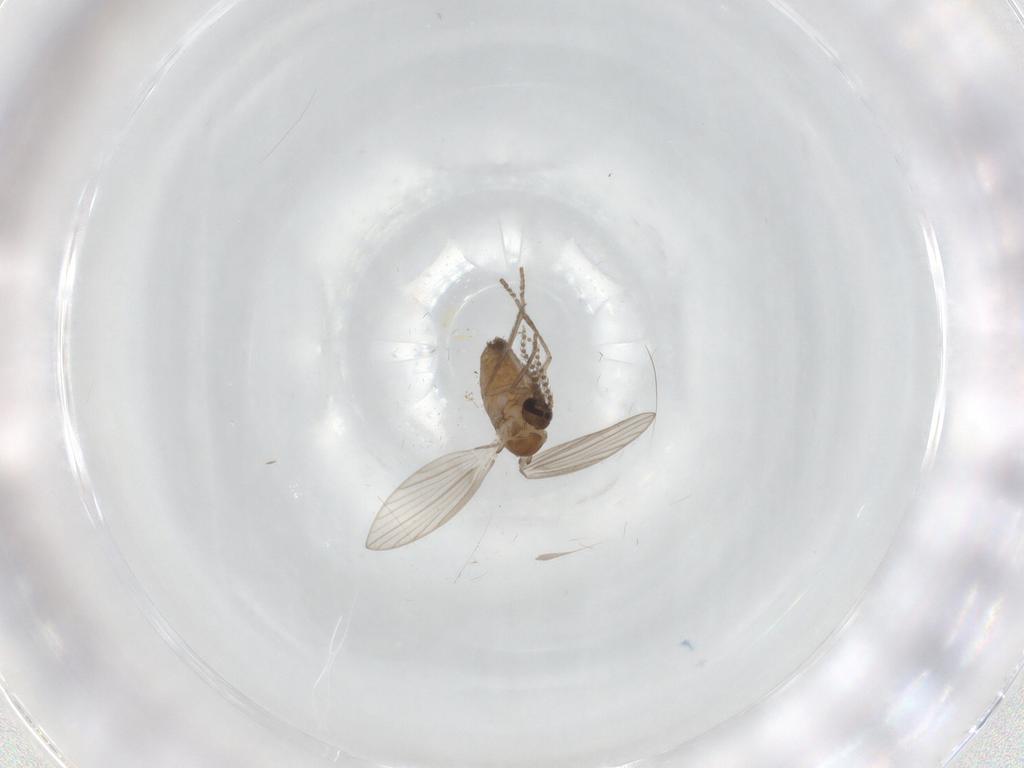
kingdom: Animalia
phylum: Arthropoda
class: Insecta
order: Diptera
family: Psychodidae
